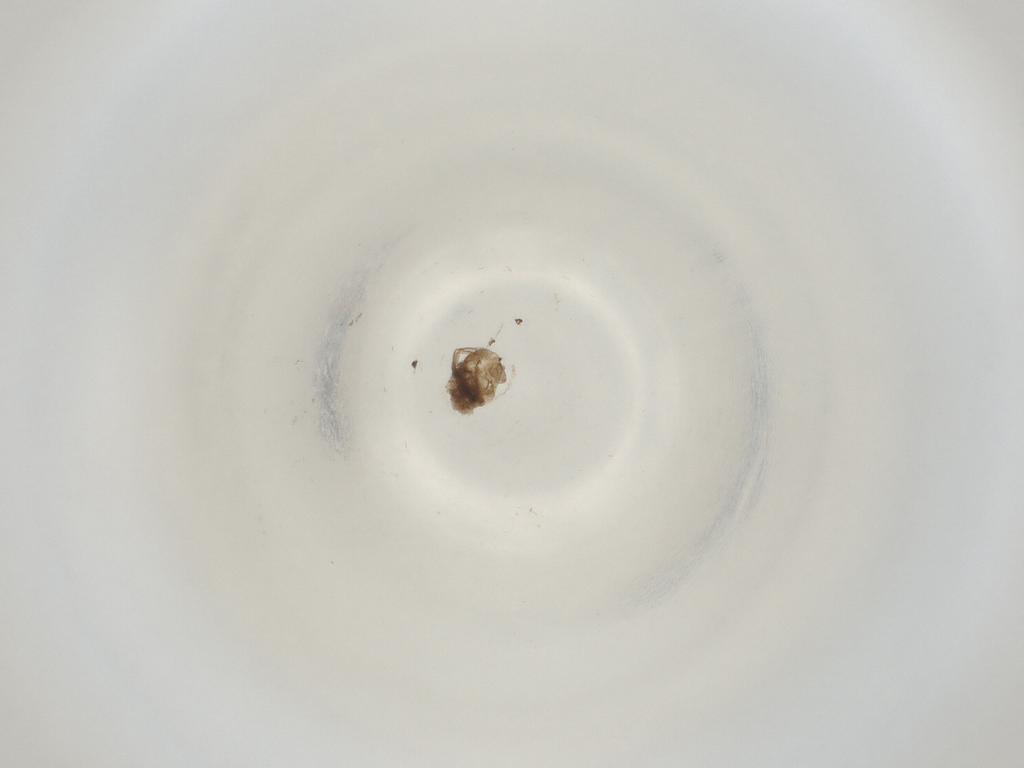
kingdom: Animalia
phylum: Arthropoda
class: Insecta
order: Diptera
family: Cecidomyiidae
